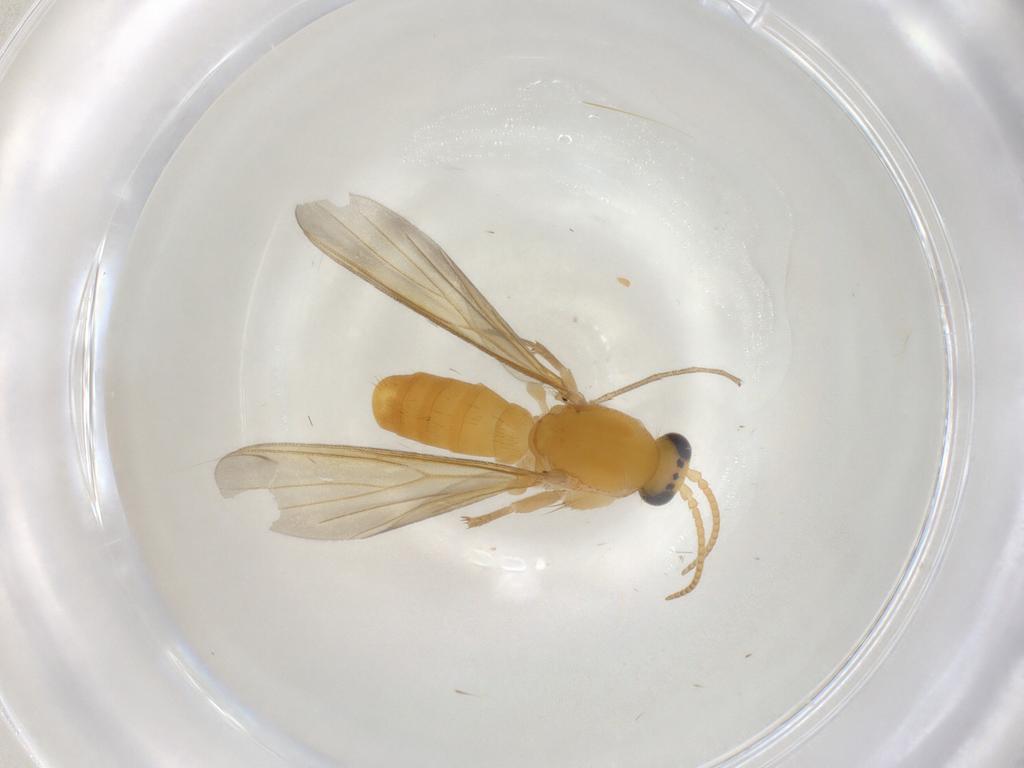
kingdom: Animalia
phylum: Arthropoda
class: Insecta
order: Diptera
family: Mycetophilidae
